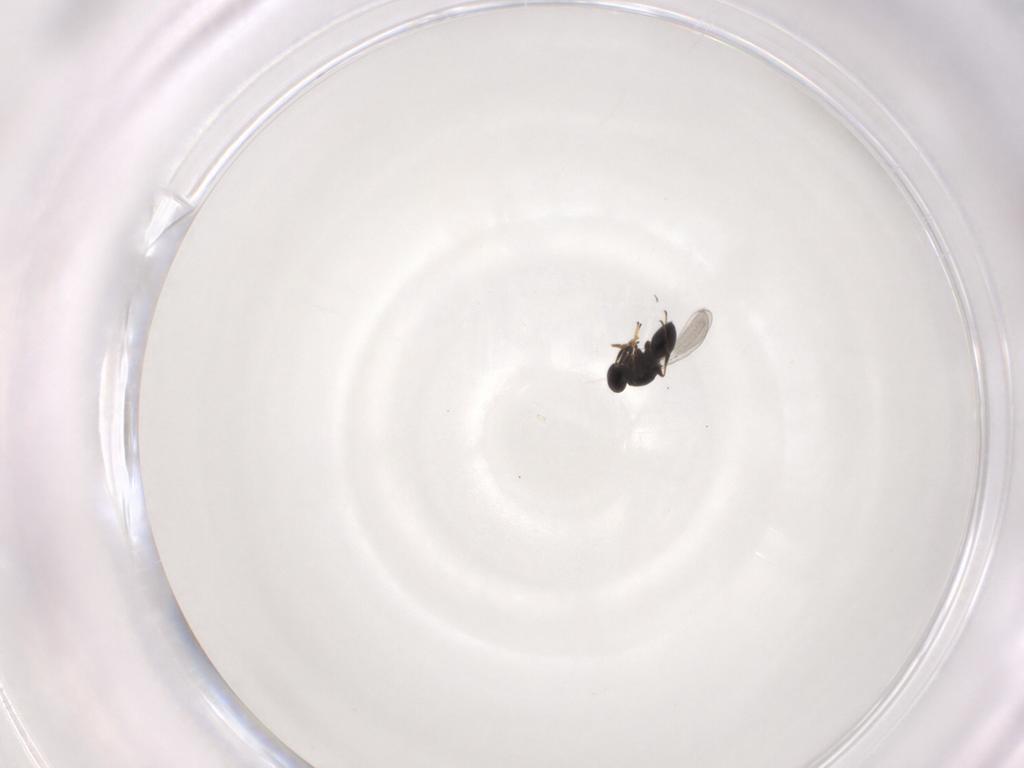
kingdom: Animalia
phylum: Arthropoda
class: Insecta
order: Hymenoptera
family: Platygastridae
